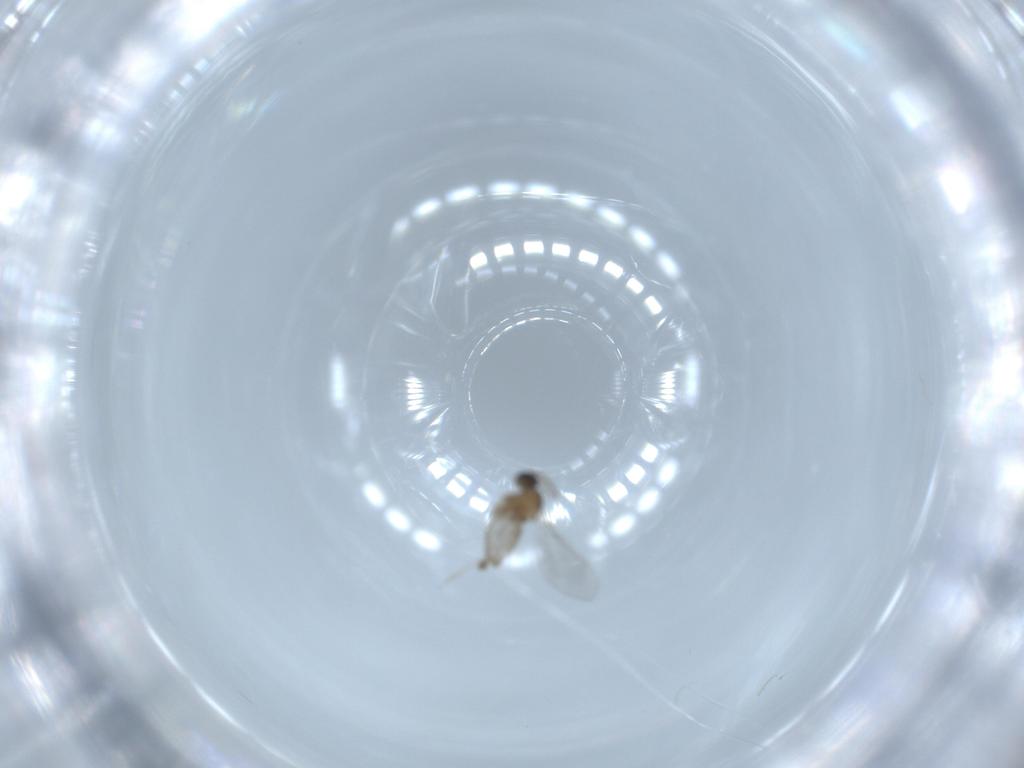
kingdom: Animalia
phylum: Arthropoda
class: Insecta
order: Diptera
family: Cecidomyiidae
